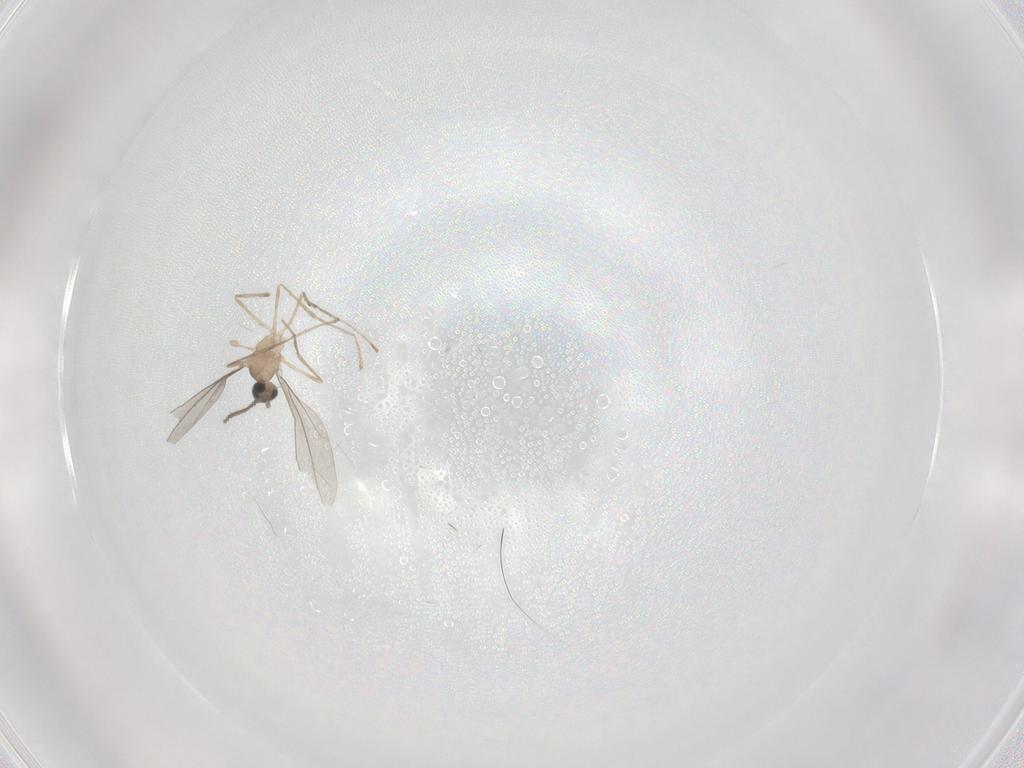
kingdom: Animalia
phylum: Arthropoda
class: Insecta
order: Diptera
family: Cecidomyiidae
